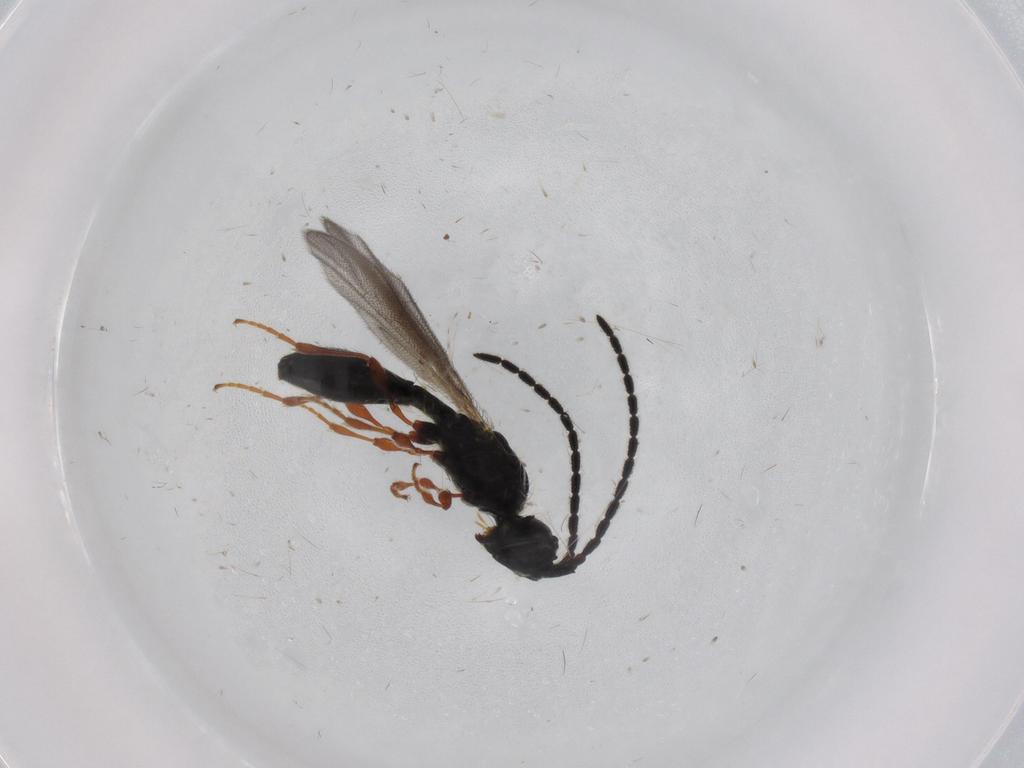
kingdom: Animalia
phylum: Arthropoda
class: Insecta
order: Hymenoptera
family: Diapriidae
